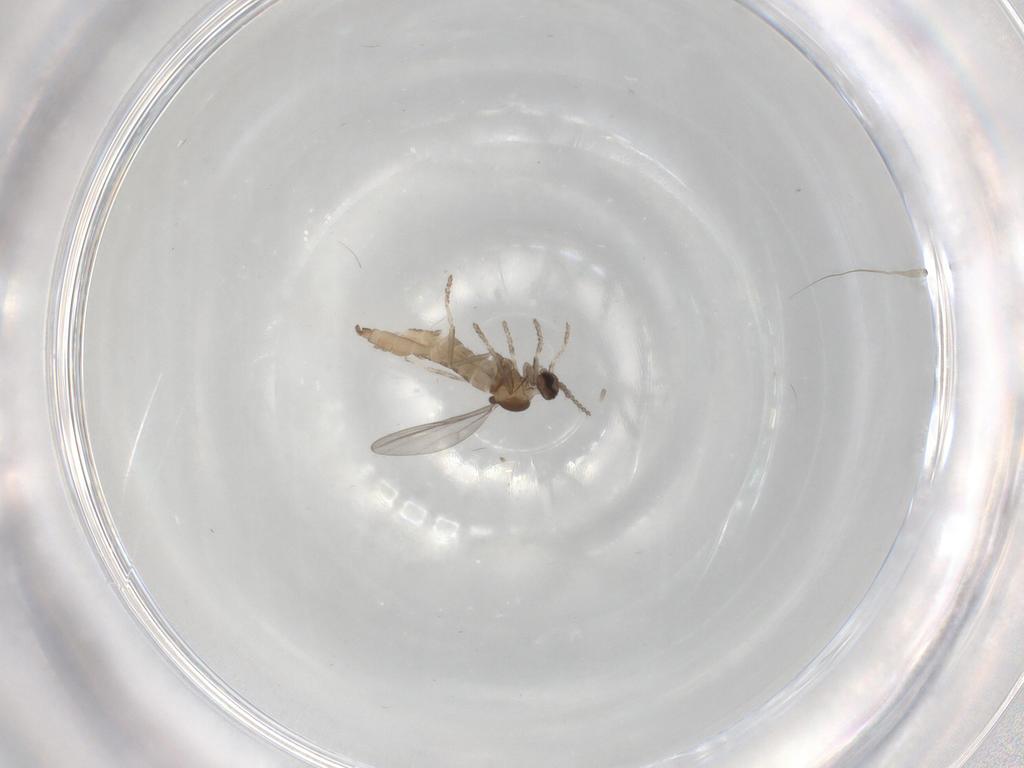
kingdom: Animalia
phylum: Arthropoda
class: Insecta
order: Diptera
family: Cecidomyiidae
